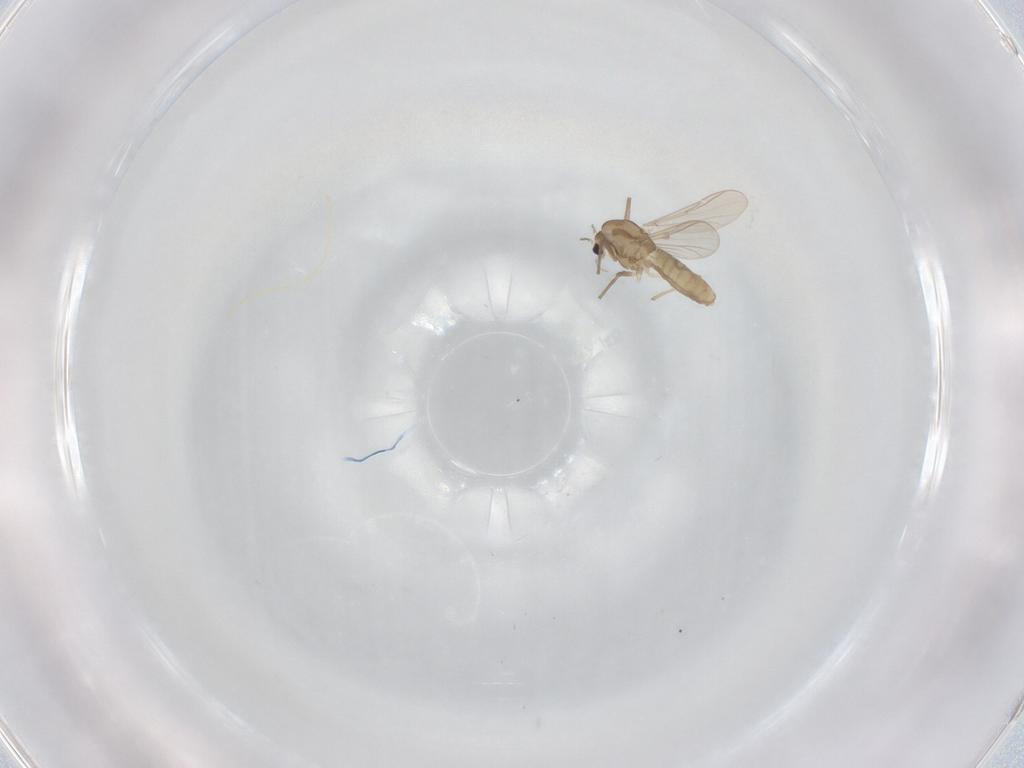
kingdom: Animalia
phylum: Arthropoda
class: Insecta
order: Diptera
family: Chironomidae
